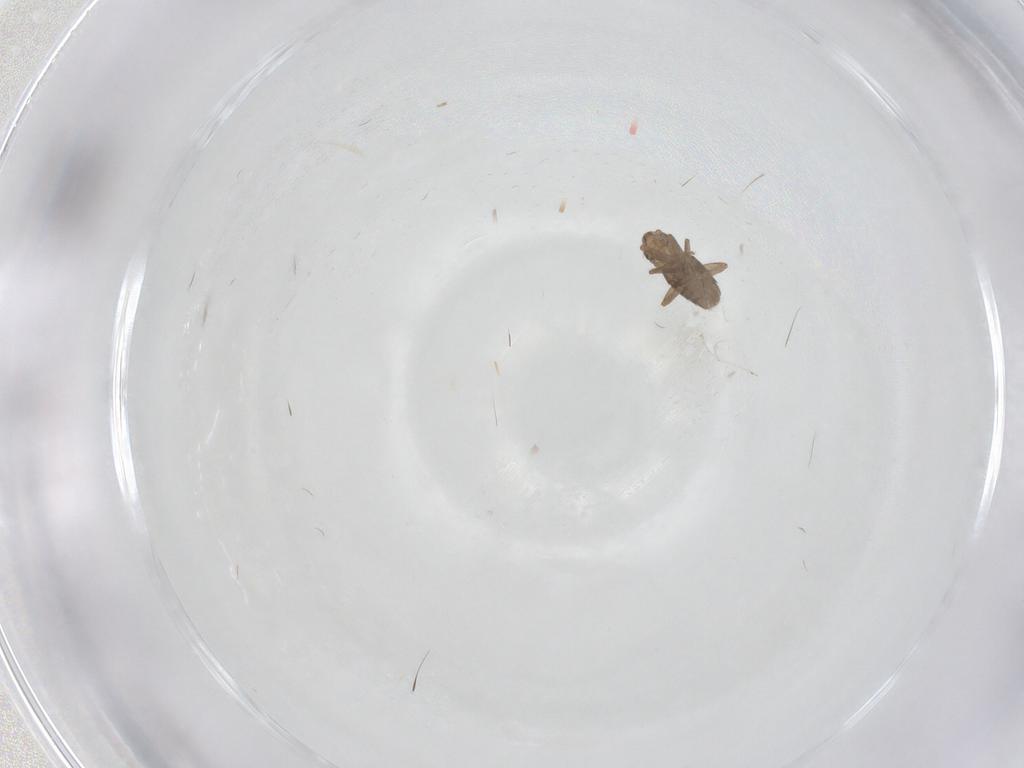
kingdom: Animalia
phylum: Arthropoda
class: Insecta
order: Diptera
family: Phoridae
